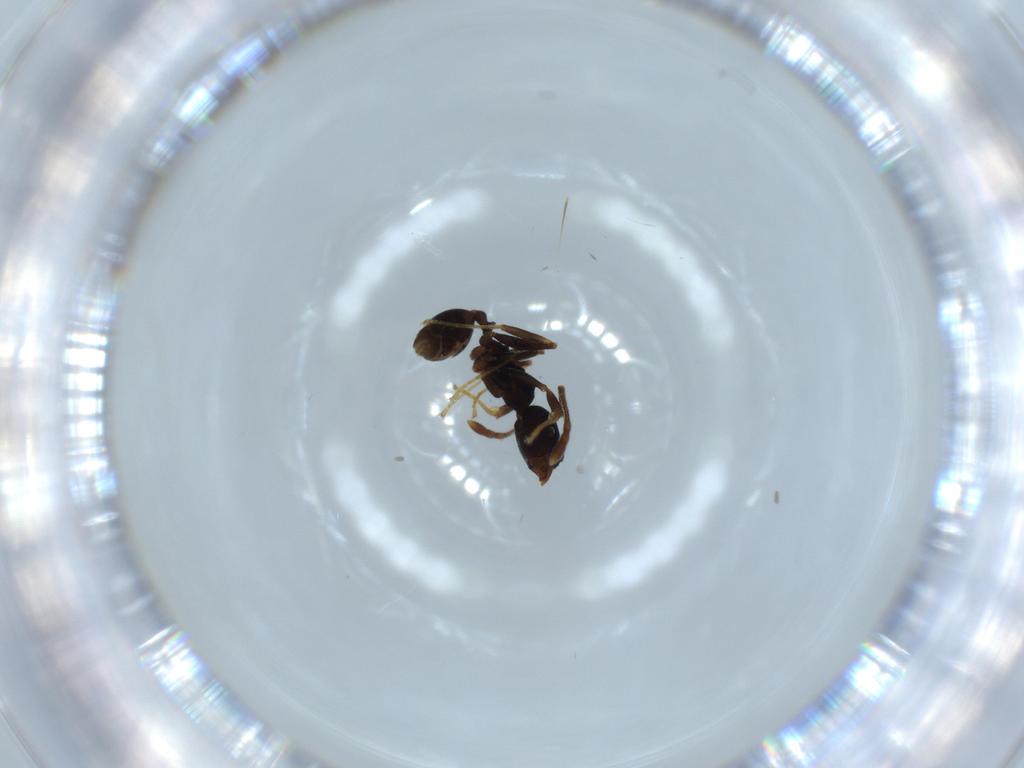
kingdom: Animalia
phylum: Arthropoda
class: Insecta
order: Hymenoptera
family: Formicidae
